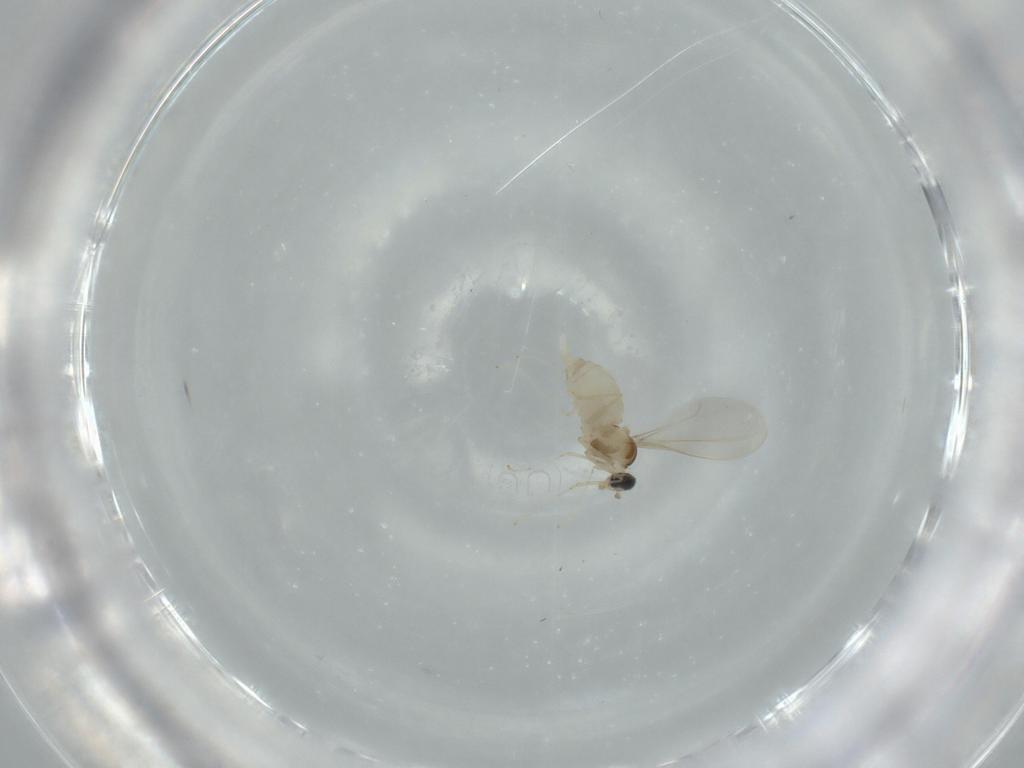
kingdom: Animalia
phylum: Arthropoda
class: Insecta
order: Diptera
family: Cecidomyiidae
